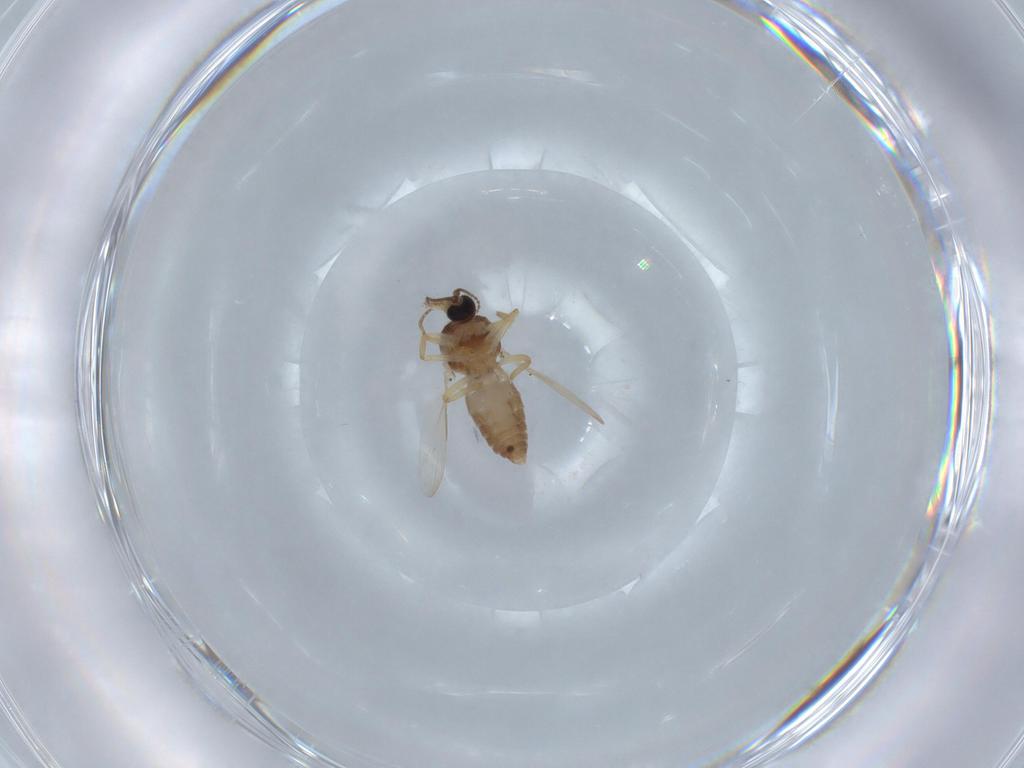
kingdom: Animalia
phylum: Arthropoda
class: Insecta
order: Diptera
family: Ceratopogonidae
